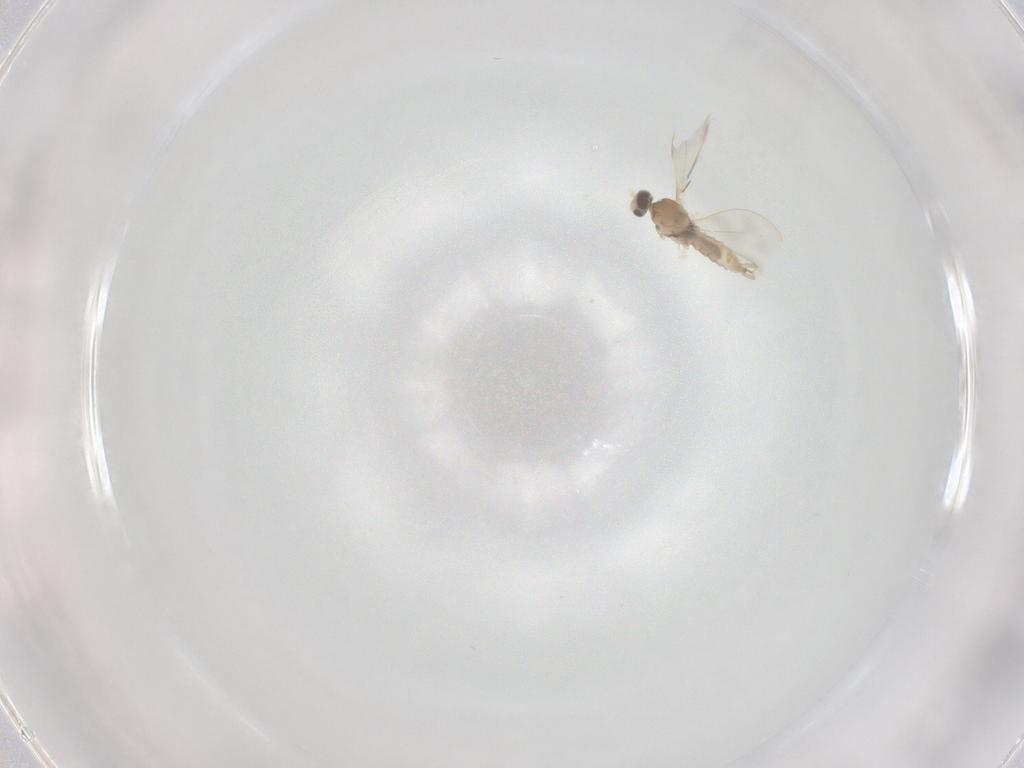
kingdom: Animalia
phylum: Arthropoda
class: Insecta
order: Diptera
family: Cecidomyiidae
